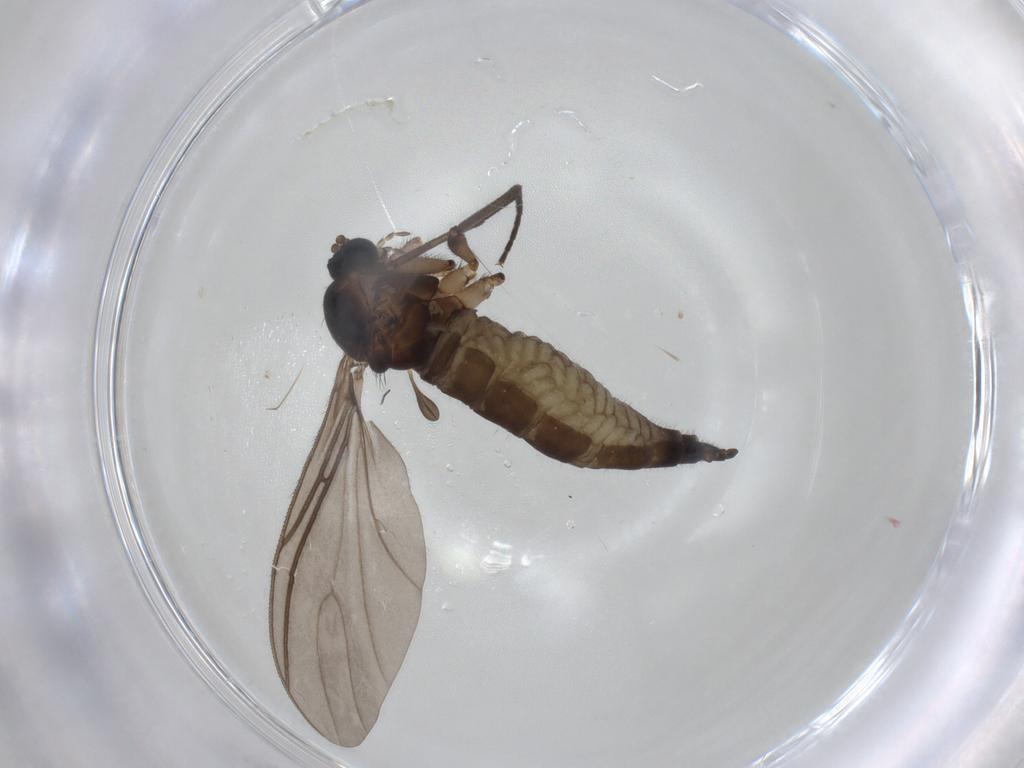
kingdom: Animalia
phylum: Arthropoda
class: Insecta
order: Diptera
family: Sciaridae
